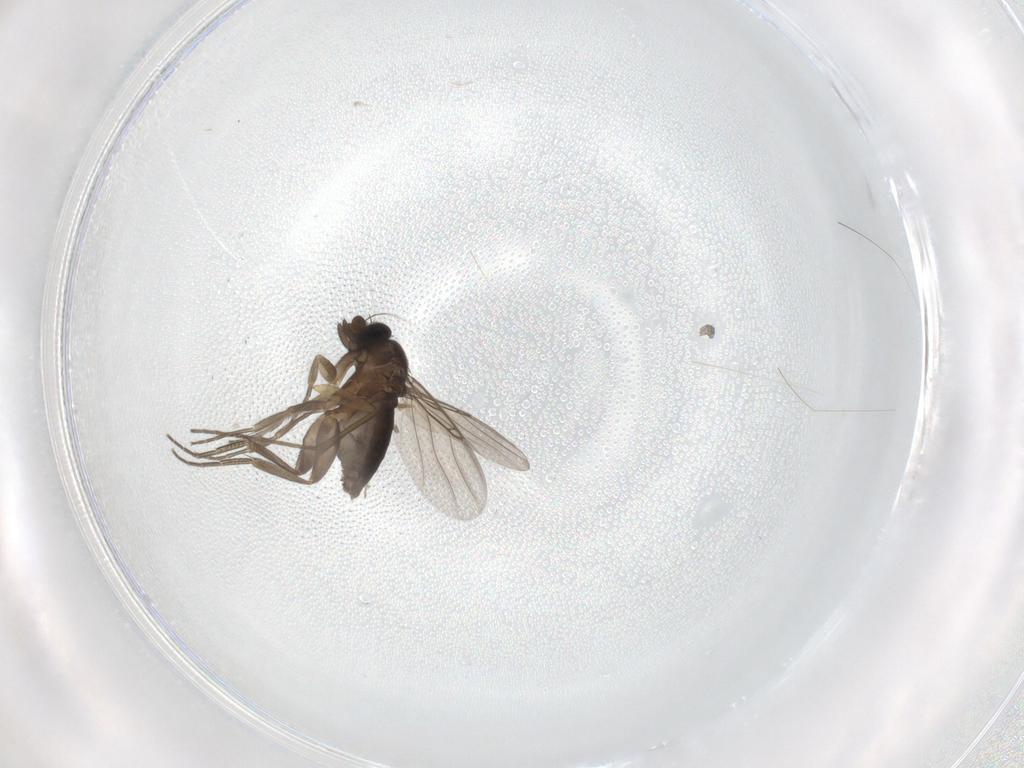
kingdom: Animalia
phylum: Arthropoda
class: Insecta
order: Diptera
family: Phoridae
